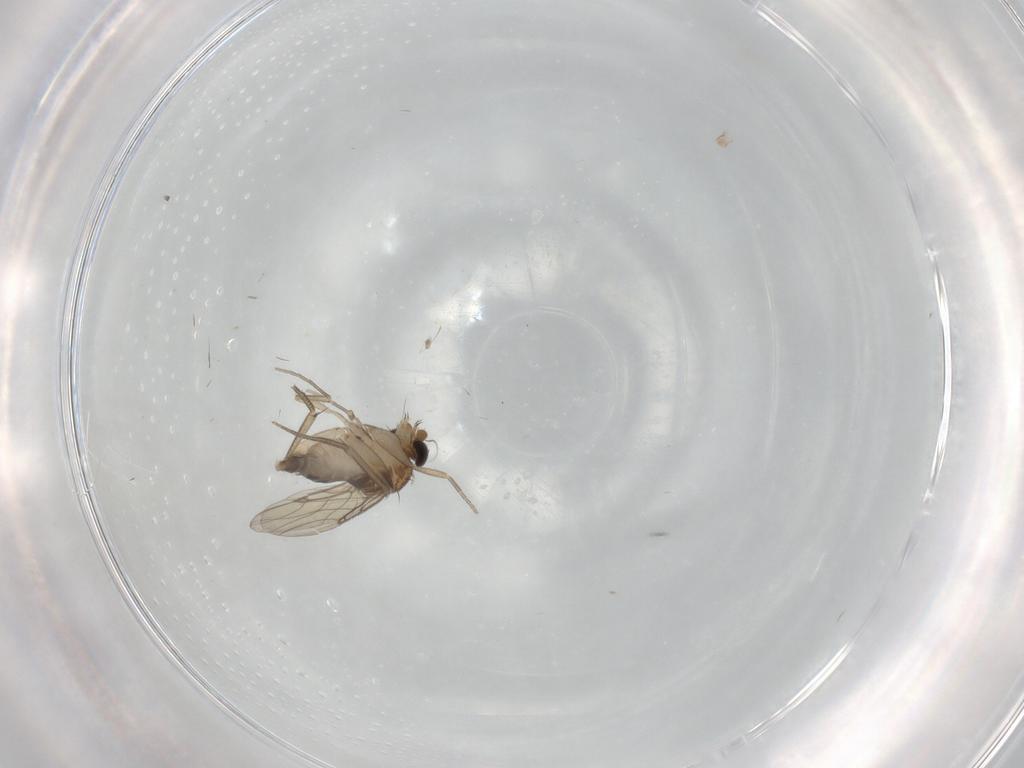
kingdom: Animalia
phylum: Arthropoda
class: Insecta
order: Diptera
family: Phoridae
